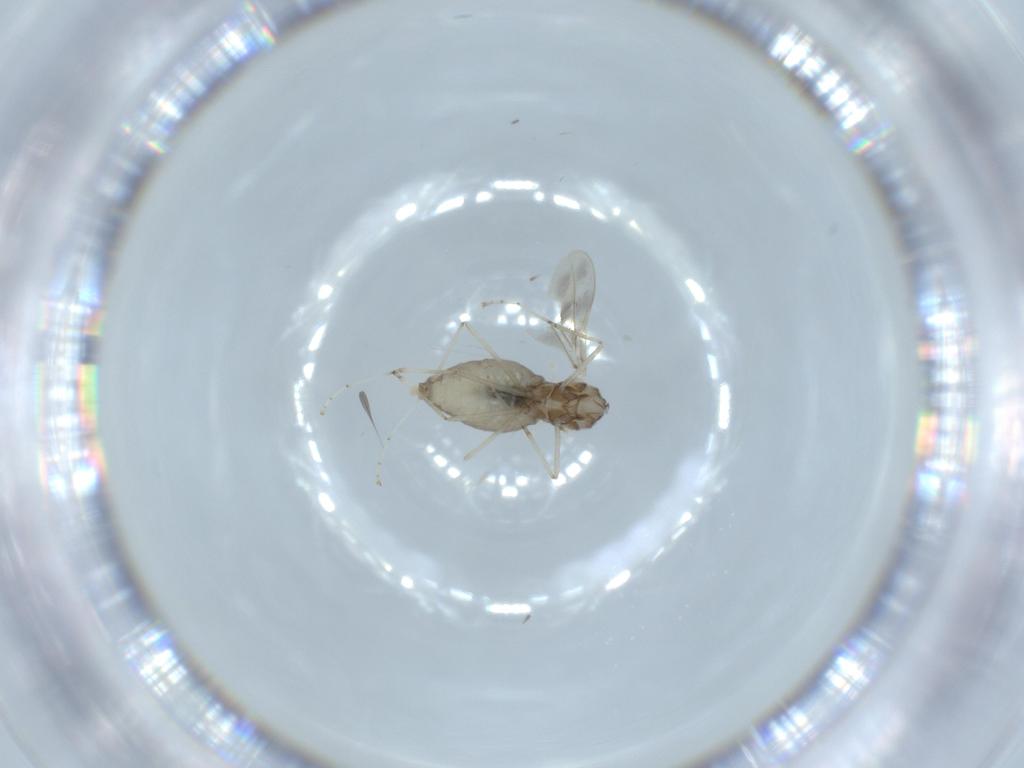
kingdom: Animalia
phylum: Arthropoda
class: Insecta
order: Diptera
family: Cecidomyiidae
